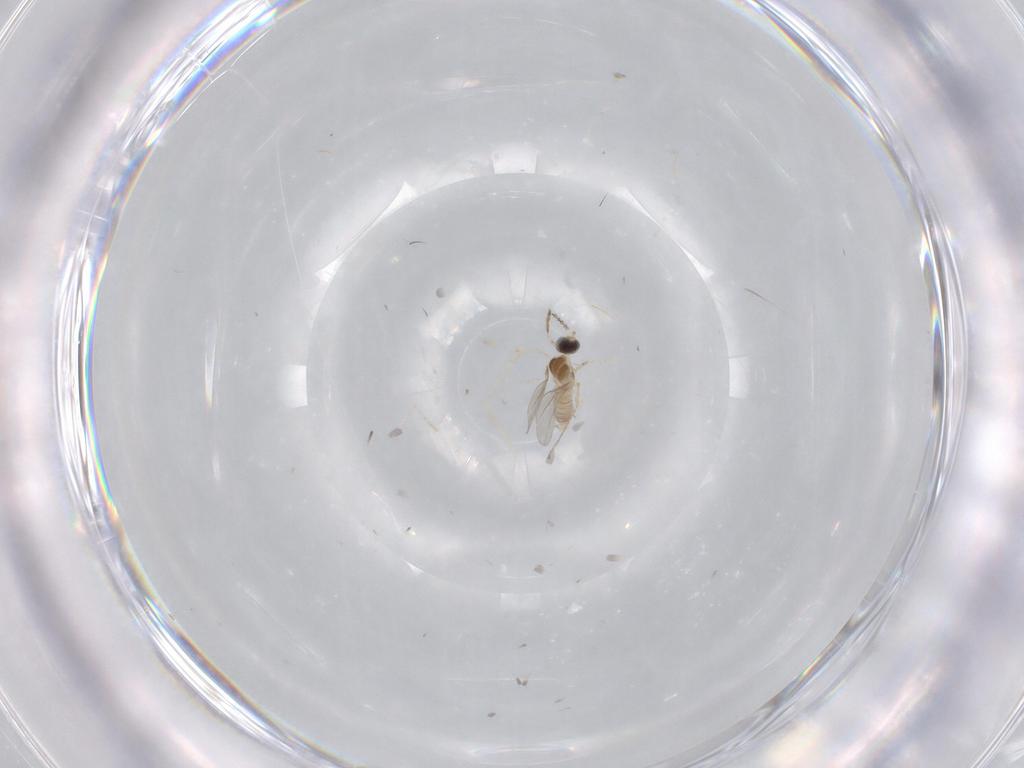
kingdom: Animalia
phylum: Arthropoda
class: Insecta
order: Diptera
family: Cecidomyiidae
